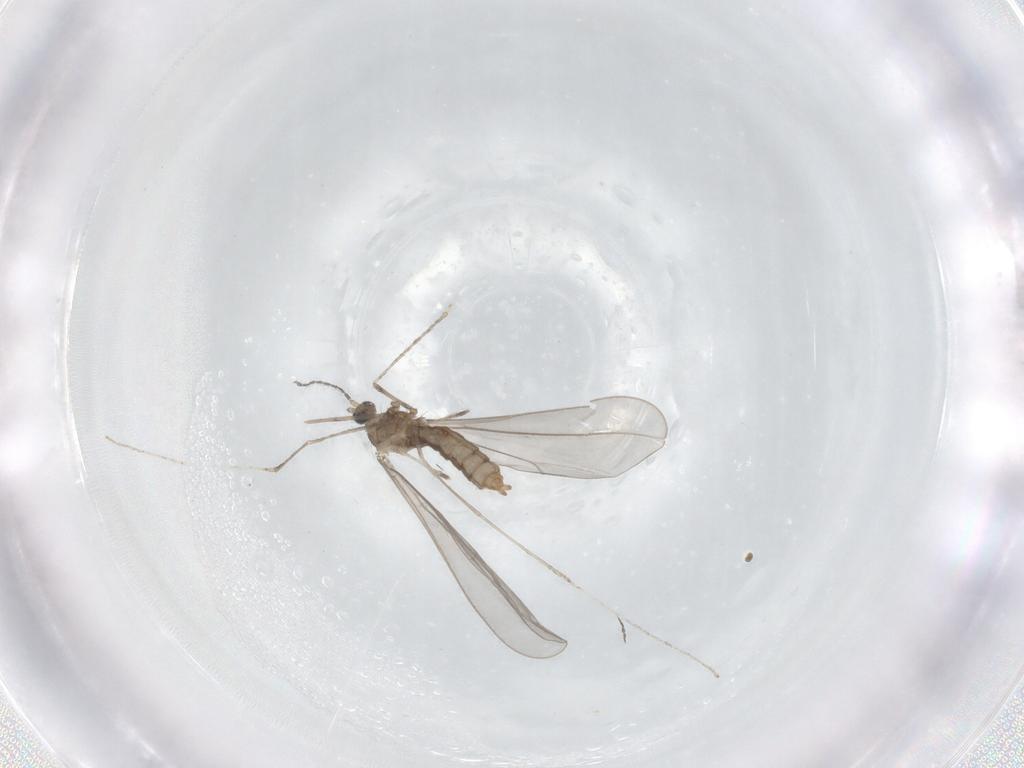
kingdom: Animalia
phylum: Arthropoda
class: Insecta
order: Diptera
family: Cecidomyiidae
